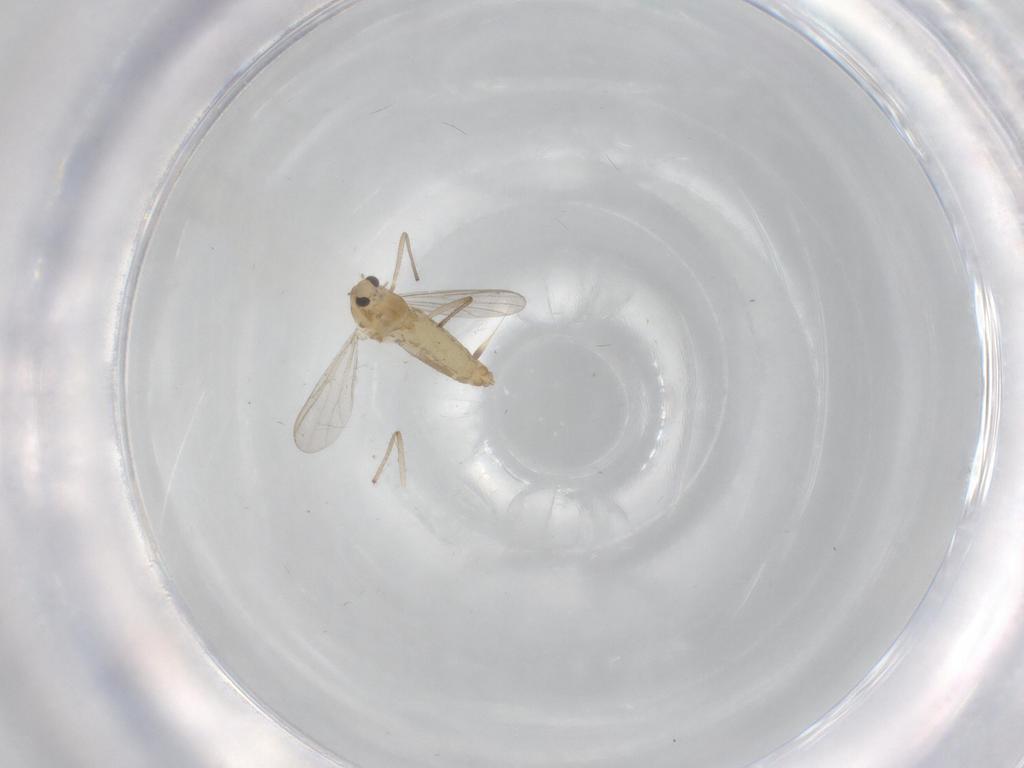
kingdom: Animalia
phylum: Arthropoda
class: Insecta
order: Diptera
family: Chironomidae
